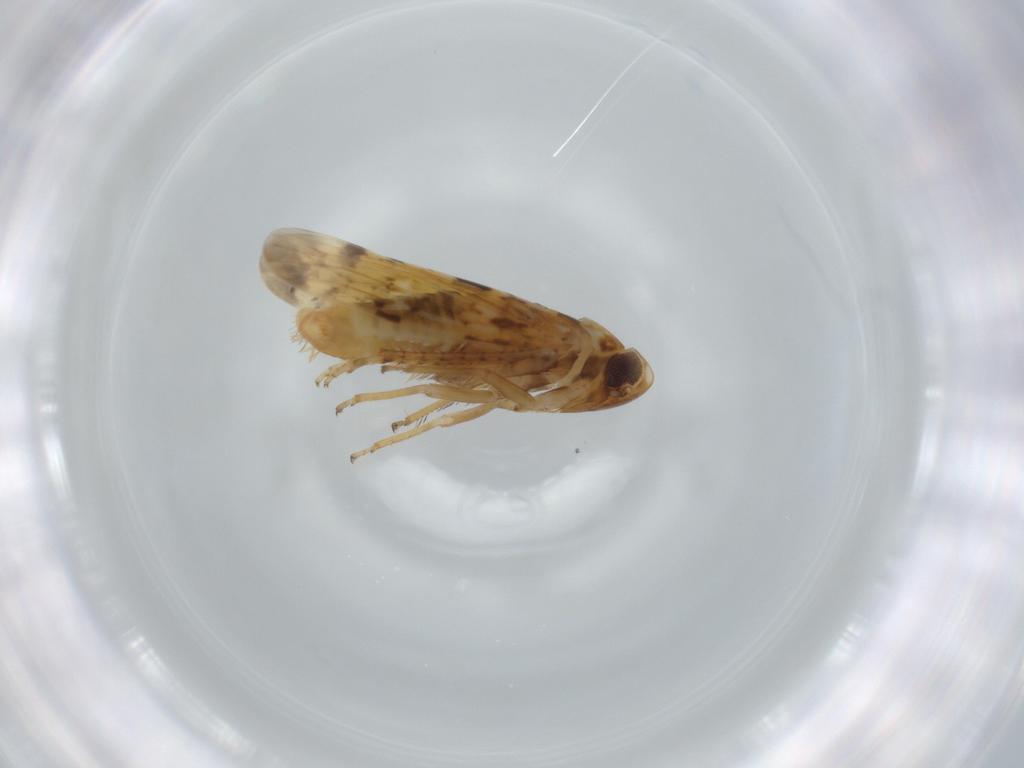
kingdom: Animalia
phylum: Arthropoda
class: Insecta
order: Hemiptera
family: Cicadellidae
